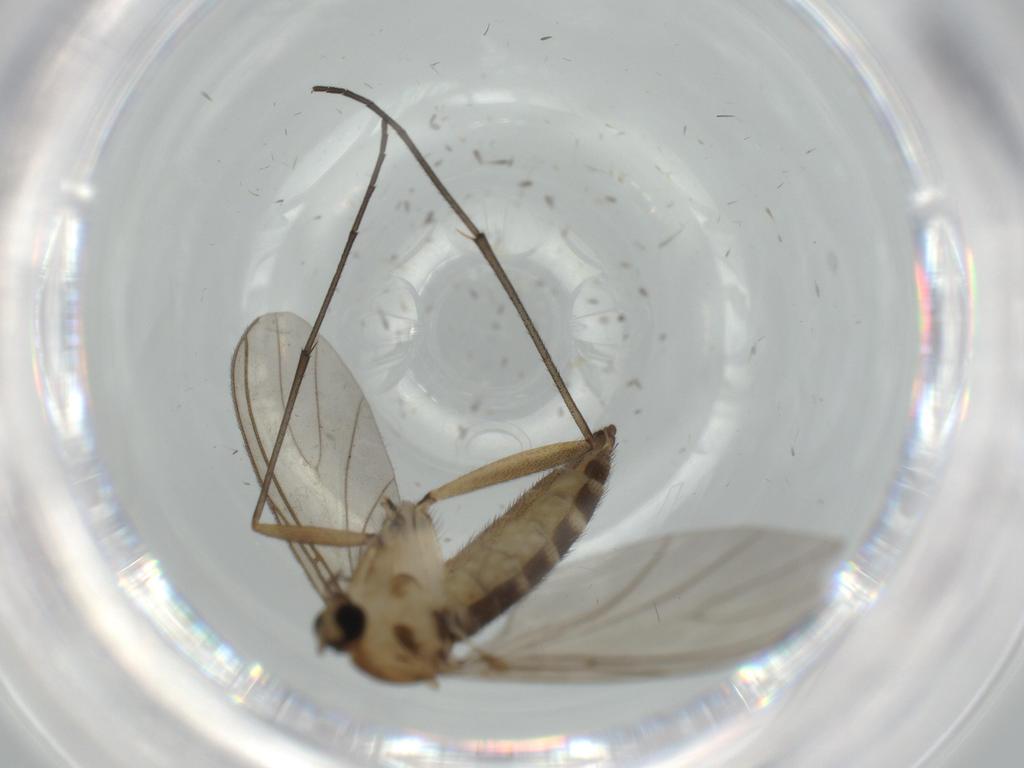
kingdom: Animalia
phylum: Arthropoda
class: Insecta
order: Diptera
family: Sciaridae
